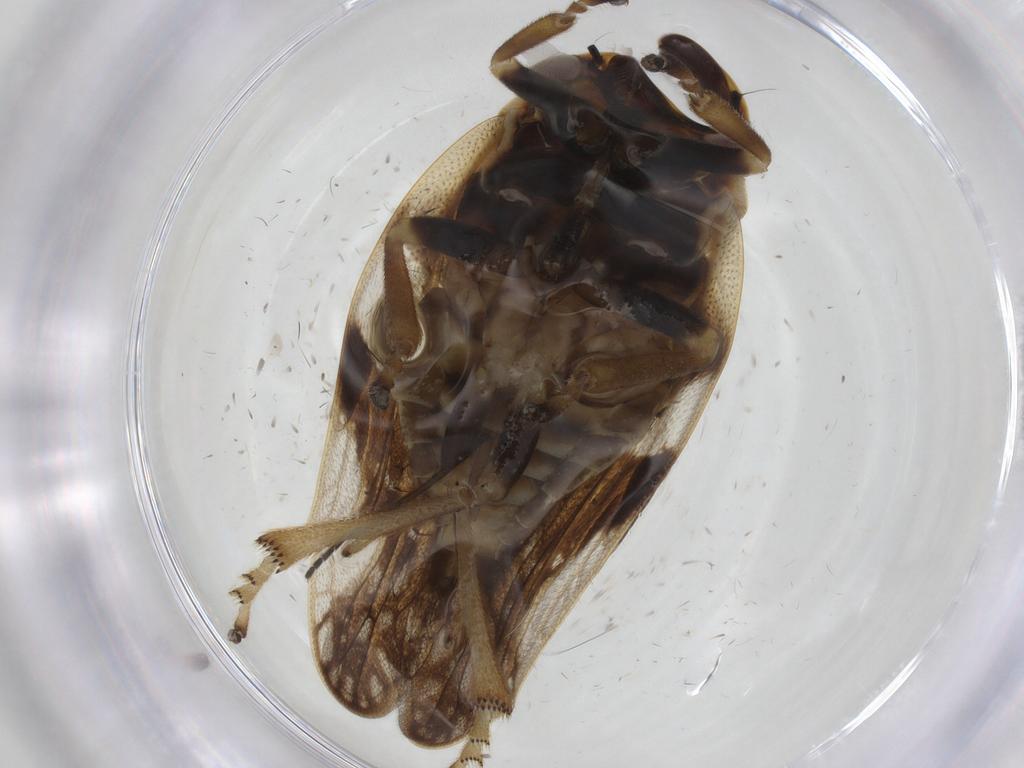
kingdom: Animalia
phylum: Arthropoda
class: Insecta
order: Hemiptera
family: Aphrophoridae
